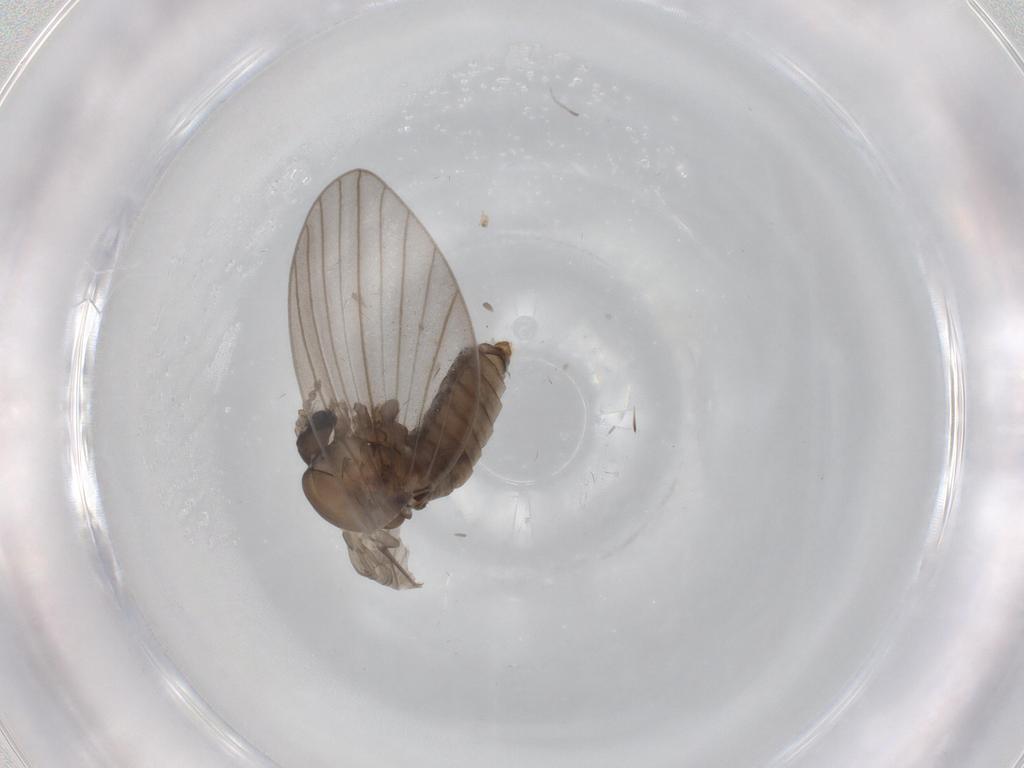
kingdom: Animalia
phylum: Arthropoda
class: Insecta
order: Diptera
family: Psychodidae
